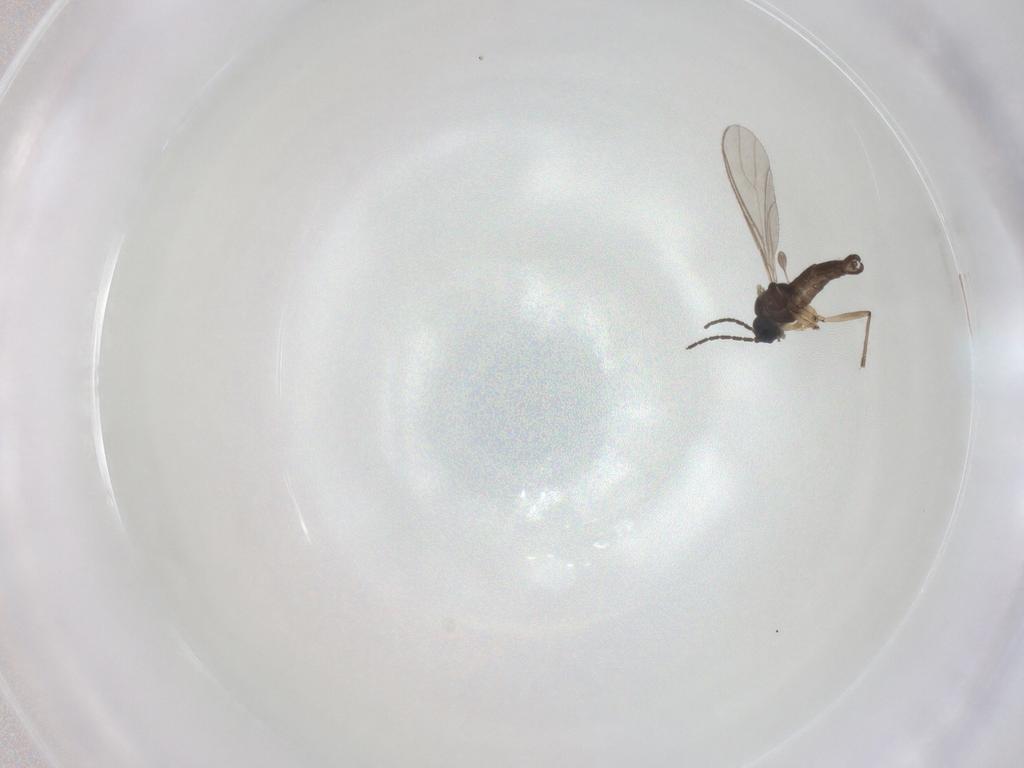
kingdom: Animalia
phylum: Arthropoda
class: Insecta
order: Diptera
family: Sciaridae
